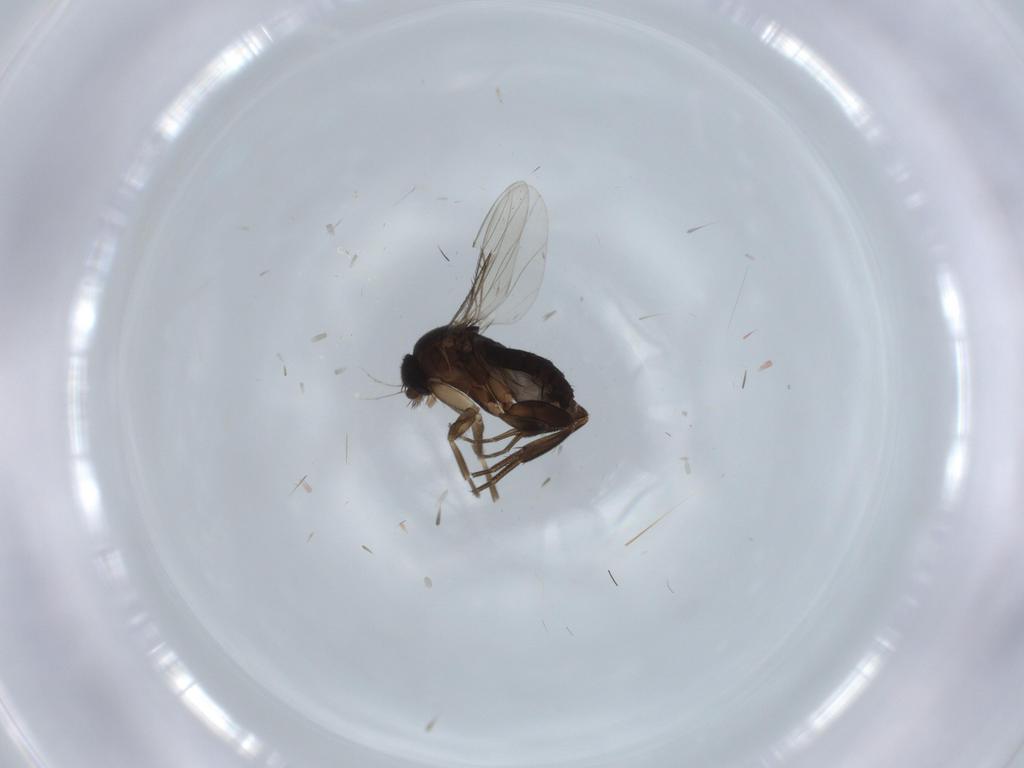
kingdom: Animalia
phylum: Arthropoda
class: Insecta
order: Diptera
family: Phoridae
